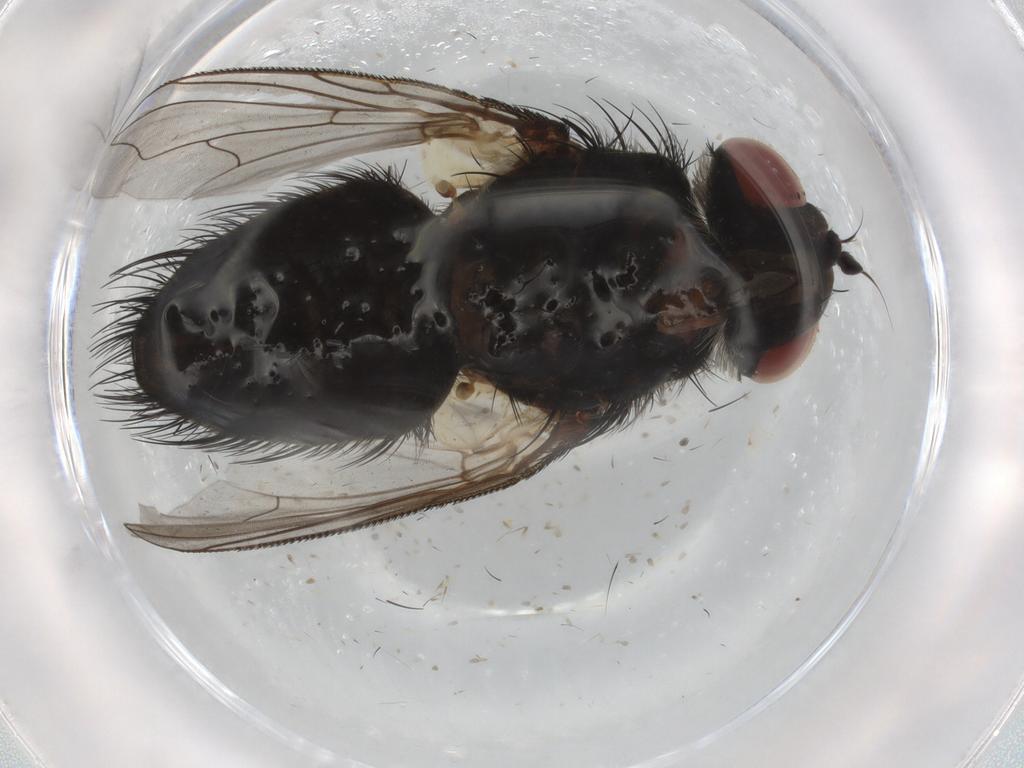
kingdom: Animalia
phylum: Arthropoda
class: Insecta
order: Diptera
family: Tachinidae
